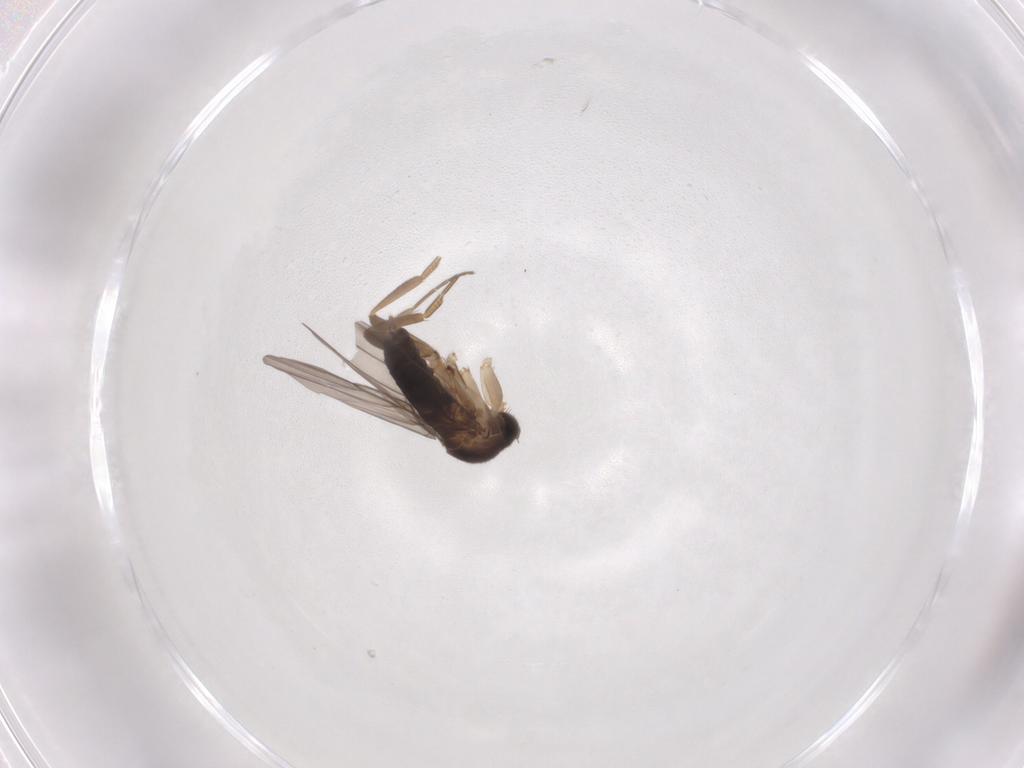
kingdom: Animalia
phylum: Arthropoda
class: Insecta
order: Diptera
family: Phoridae
